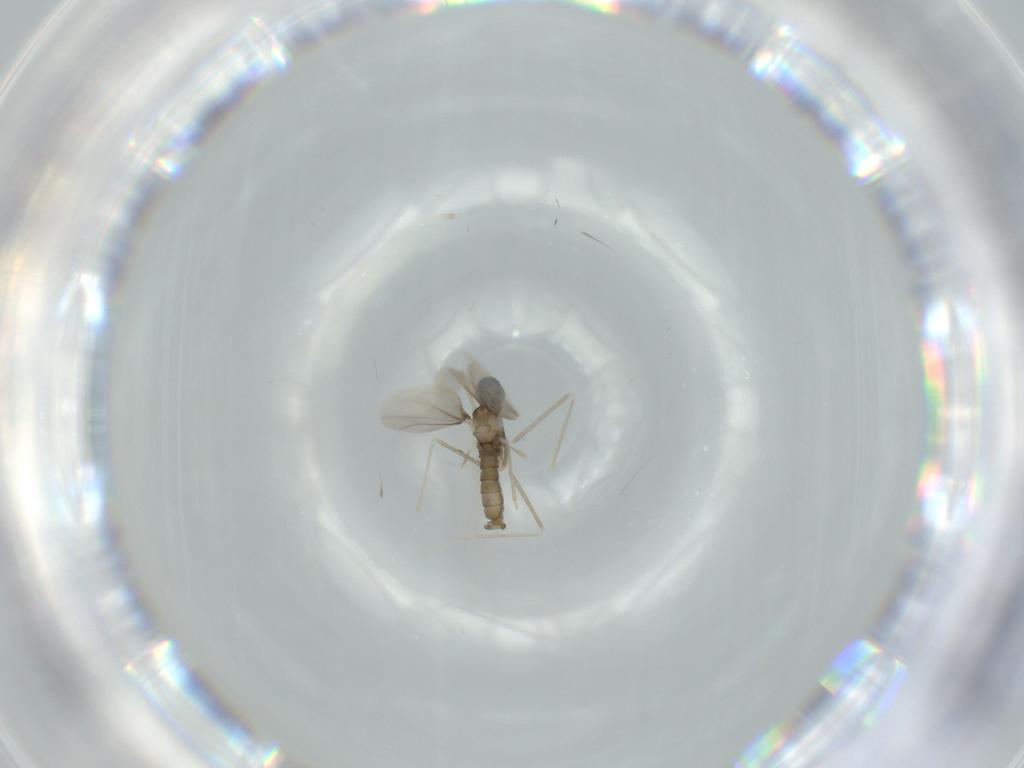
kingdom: Animalia
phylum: Arthropoda
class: Insecta
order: Diptera
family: Cecidomyiidae
